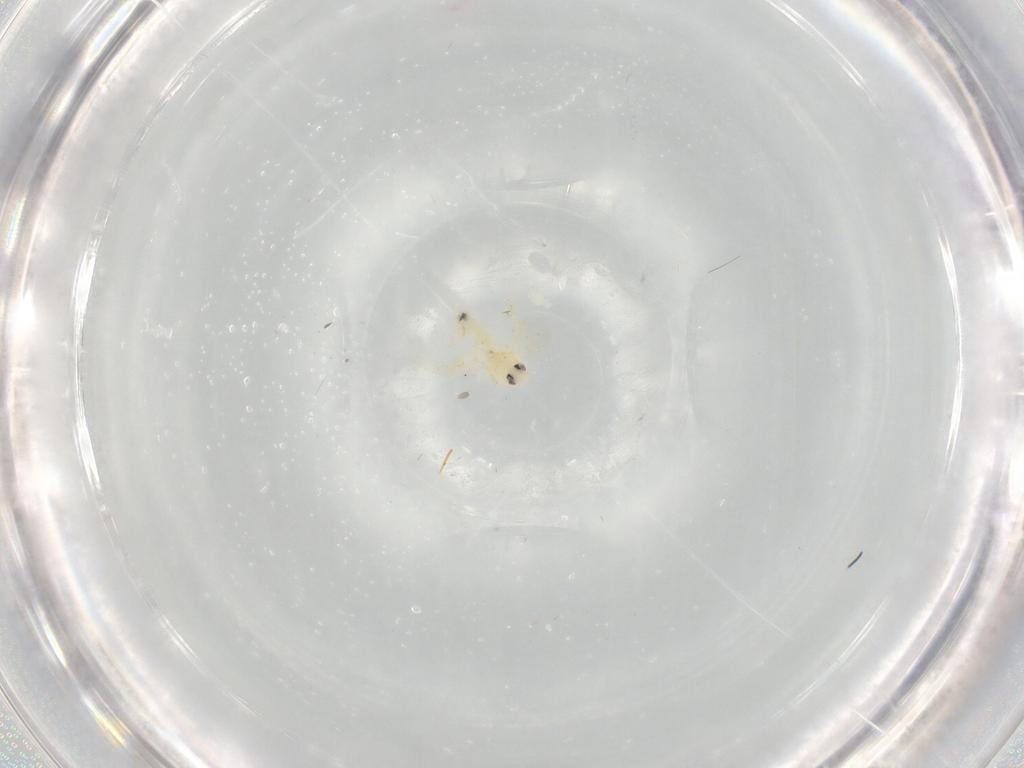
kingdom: Animalia
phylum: Arthropoda
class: Insecta
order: Hemiptera
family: Aleyrodidae
